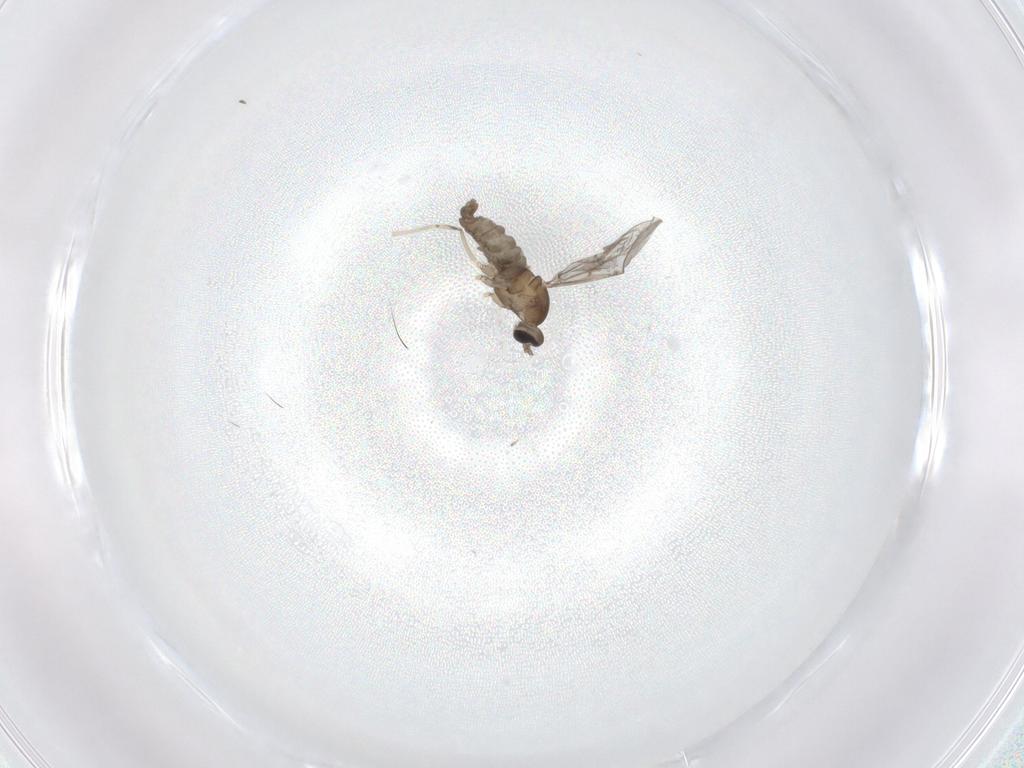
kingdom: Animalia
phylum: Arthropoda
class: Insecta
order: Diptera
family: Cecidomyiidae
